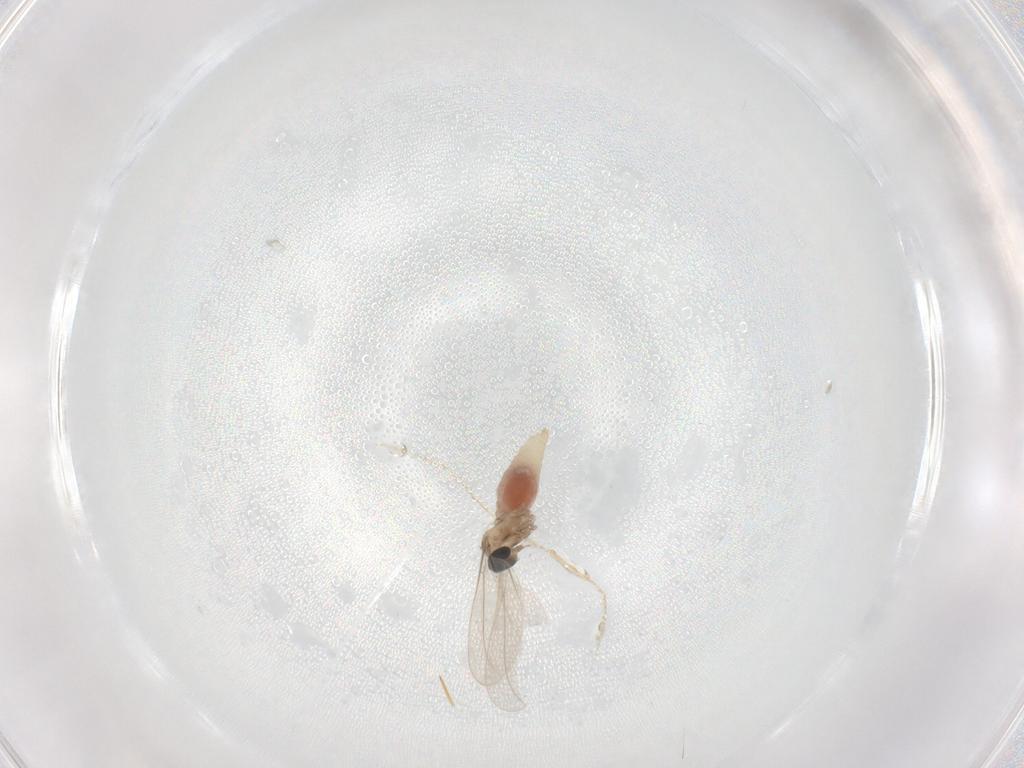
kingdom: Animalia
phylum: Arthropoda
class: Insecta
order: Diptera
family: Cecidomyiidae
